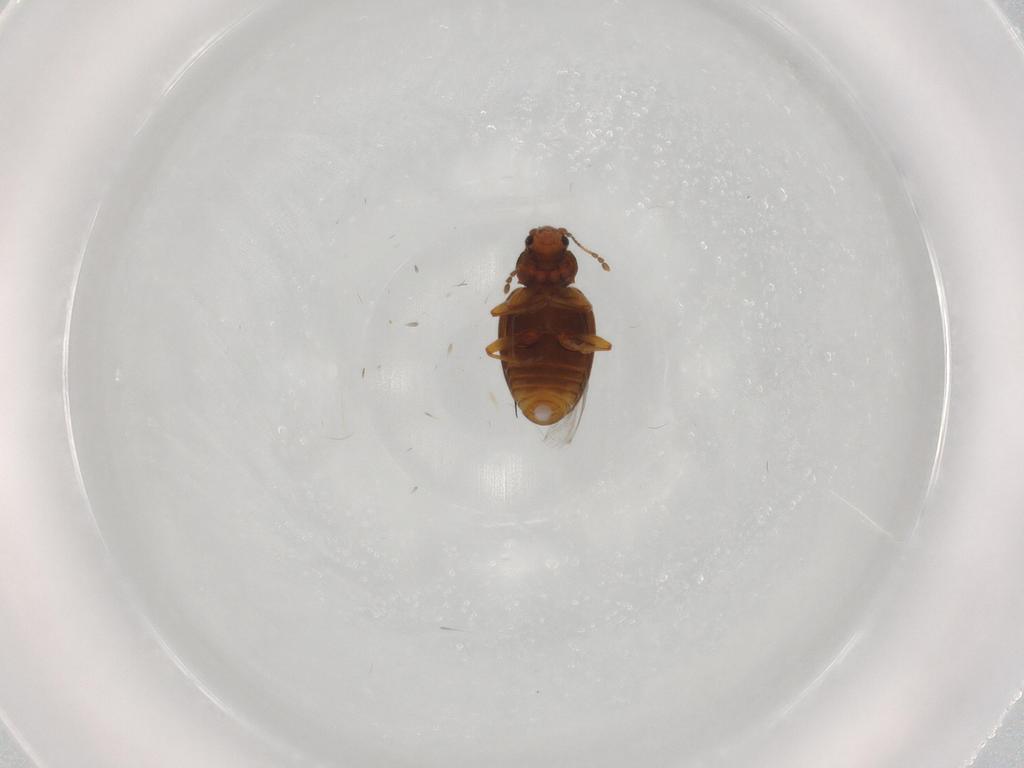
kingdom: Animalia
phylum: Arthropoda
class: Insecta
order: Coleoptera
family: Latridiidae
